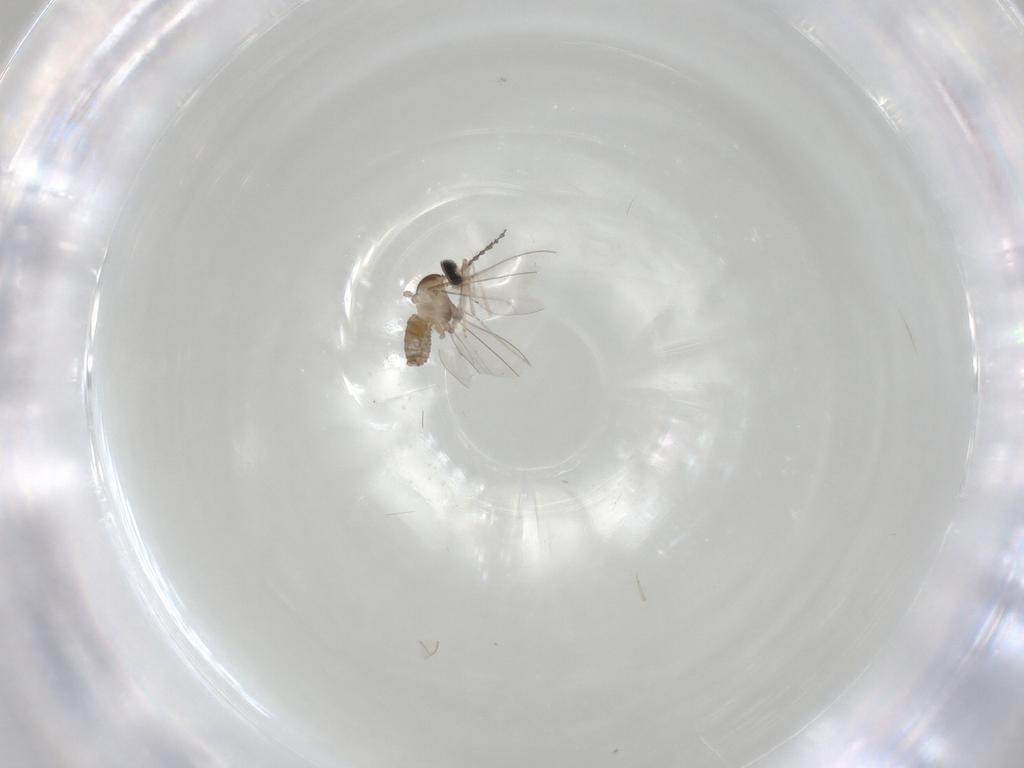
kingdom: Animalia
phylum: Arthropoda
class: Insecta
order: Diptera
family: Cecidomyiidae
